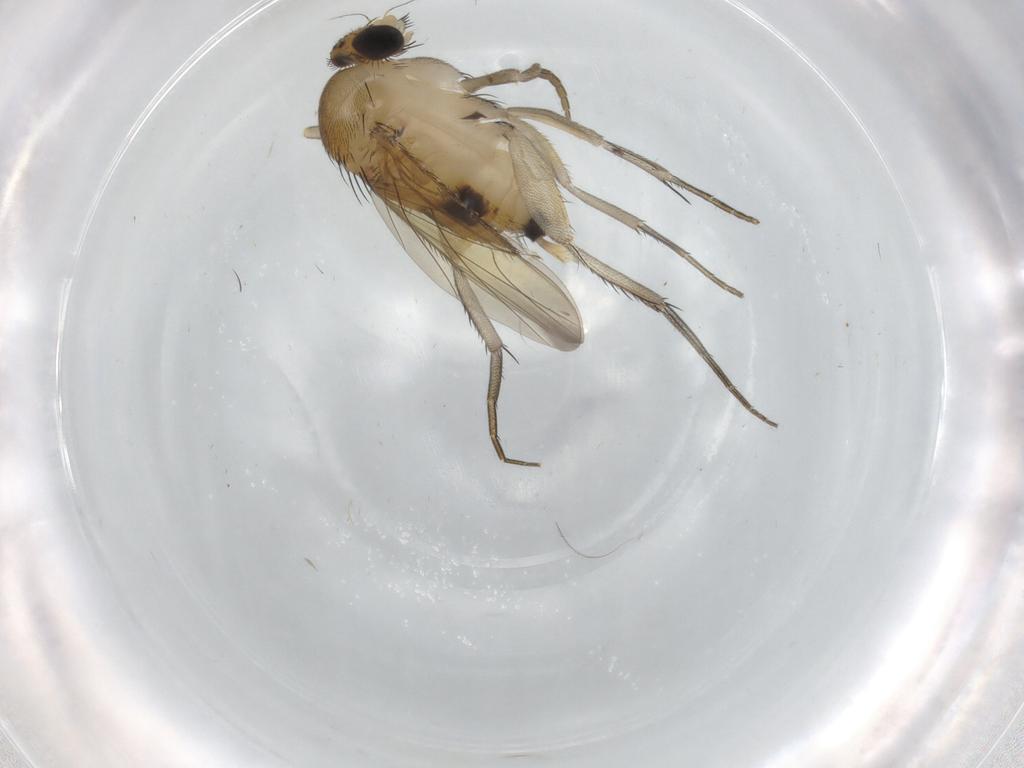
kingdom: Animalia
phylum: Arthropoda
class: Insecta
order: Diptera
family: Phoridae
